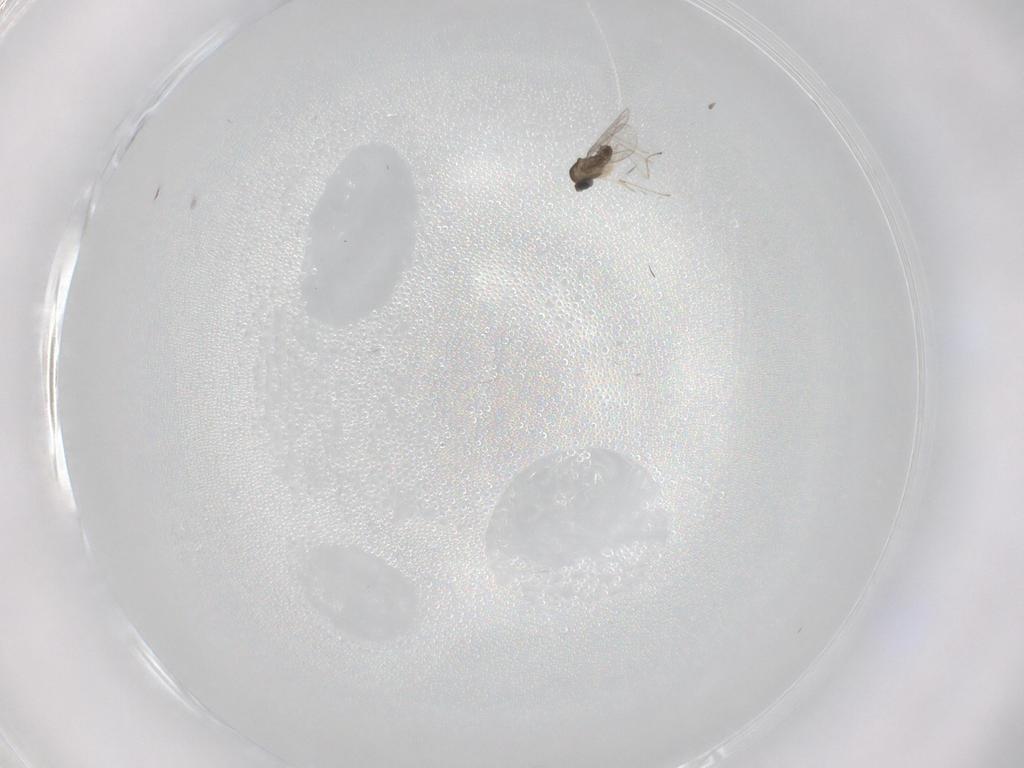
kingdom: Animalia
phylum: Arthropoda
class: Insecta
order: Diptera
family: Cecidomyiidae
